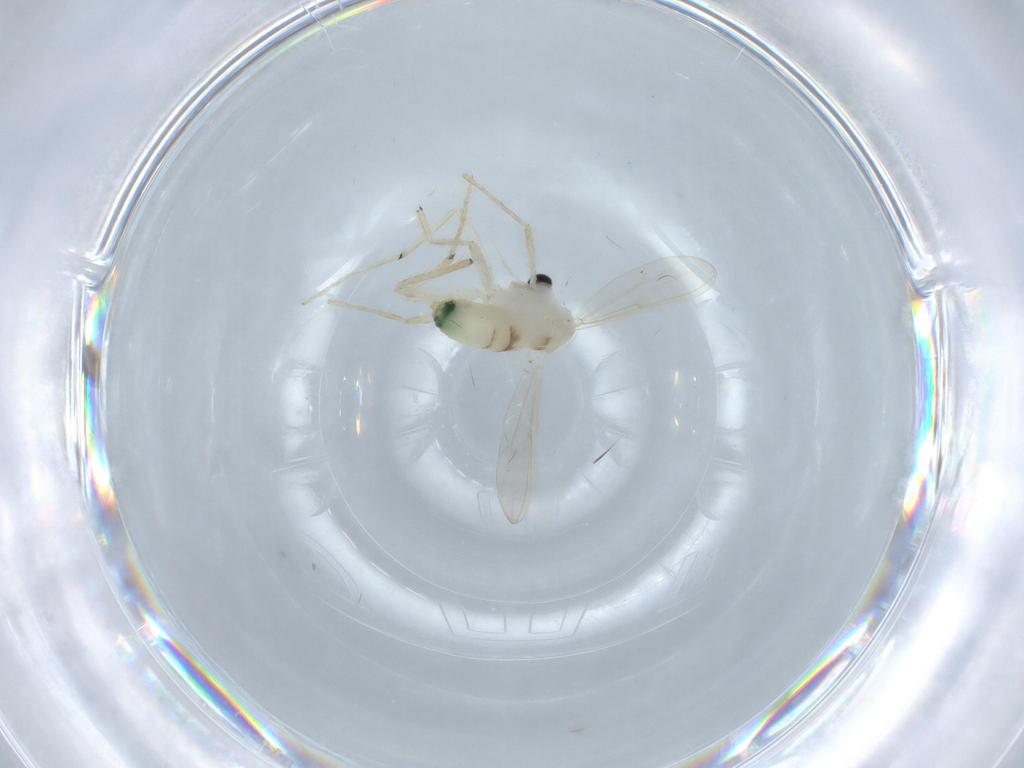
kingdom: Animalia
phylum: Arthropoda
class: Insecta
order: Diptera
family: Chironomidae
